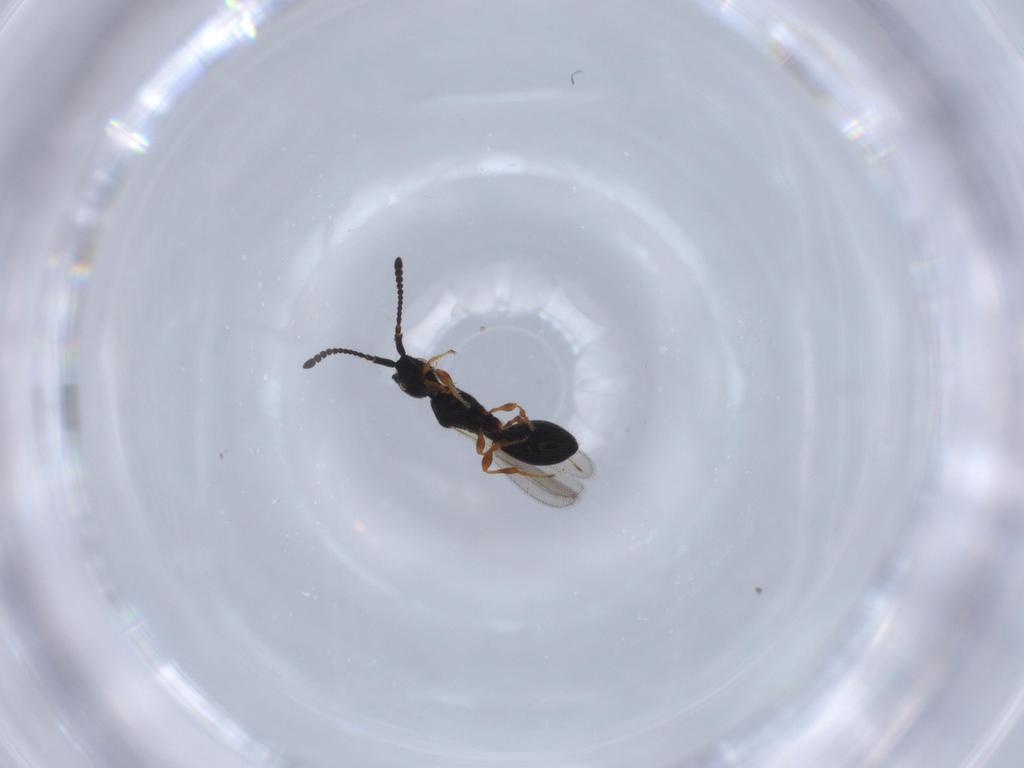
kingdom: Animalia
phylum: Arthropoda
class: Insecta
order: Hymenoptera
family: Diapriidae
